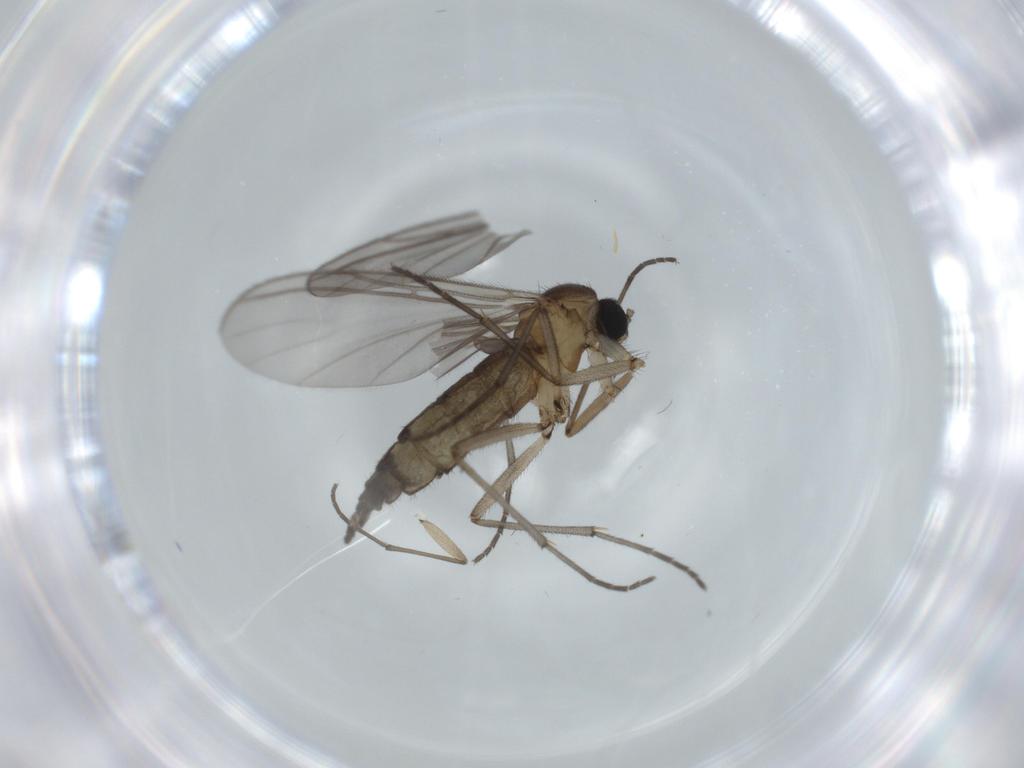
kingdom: Animalia
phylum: Arthropoda
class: Insecta
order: Diptera
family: Sciaridae
